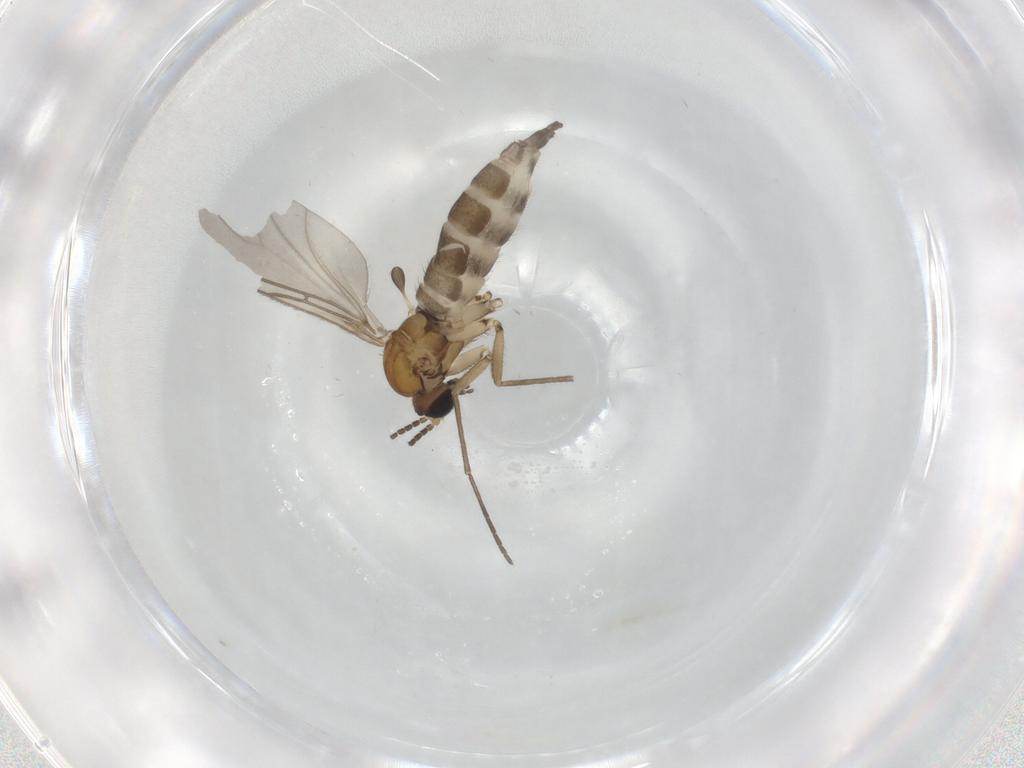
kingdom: Animalia
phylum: Arthropoda
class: Insecta
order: Diptera
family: Sciaridae
